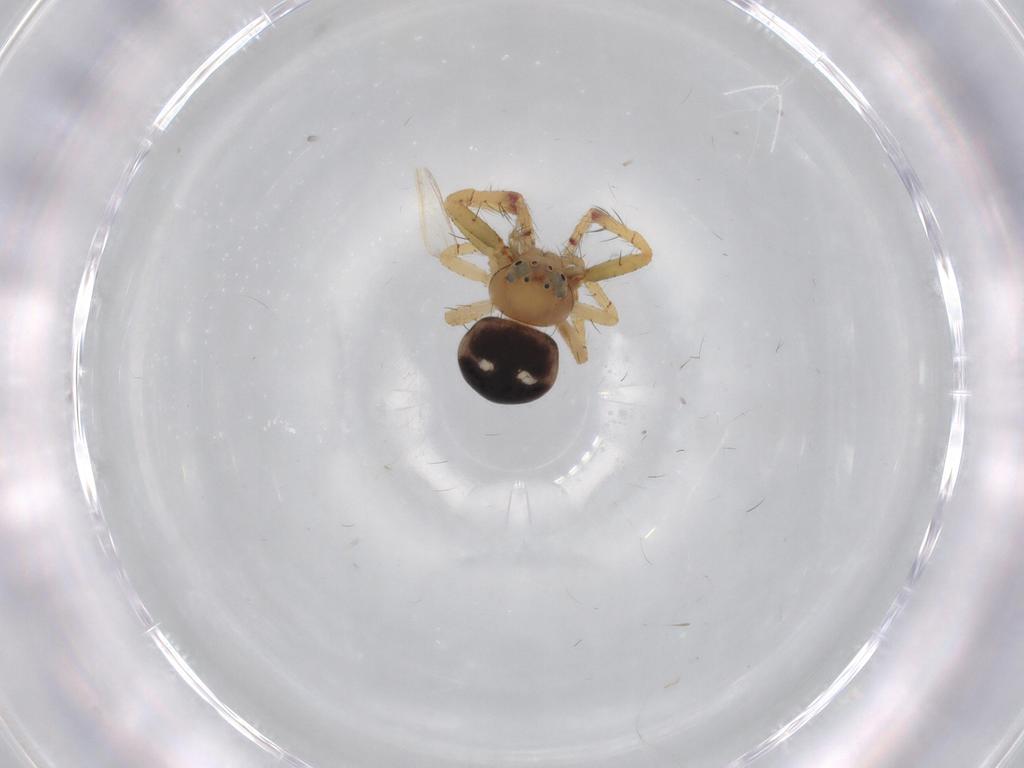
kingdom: Animalia
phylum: Arthropoda
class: Arachnida
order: Araneae
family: Thomisidae
